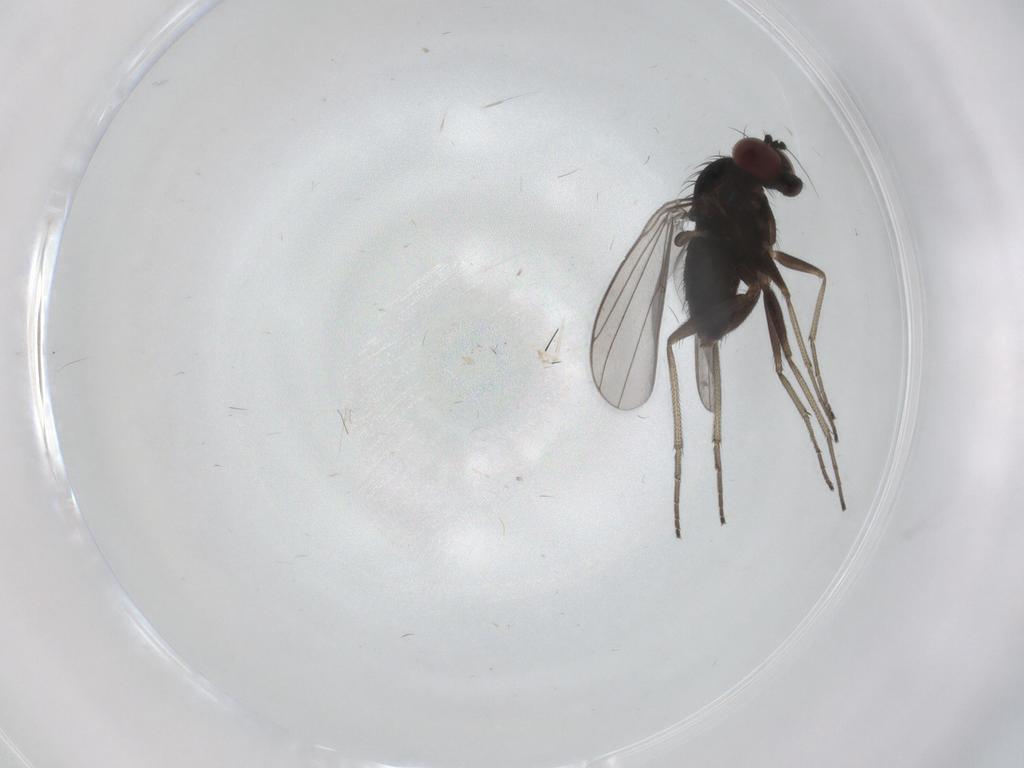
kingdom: Animalia
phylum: Arthropoda
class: Insecta
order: Diptera
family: Dolichopodidae
